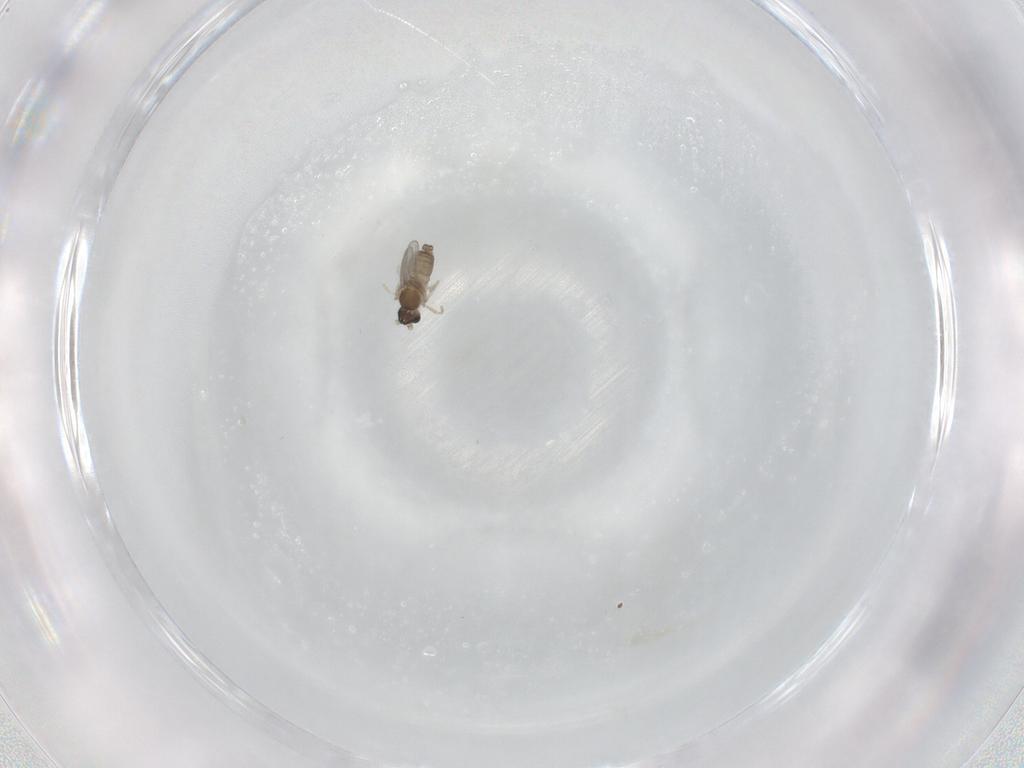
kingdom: Animalia
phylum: Arthropoda
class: Insecta
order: Diptera
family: Cecidomyiidae
